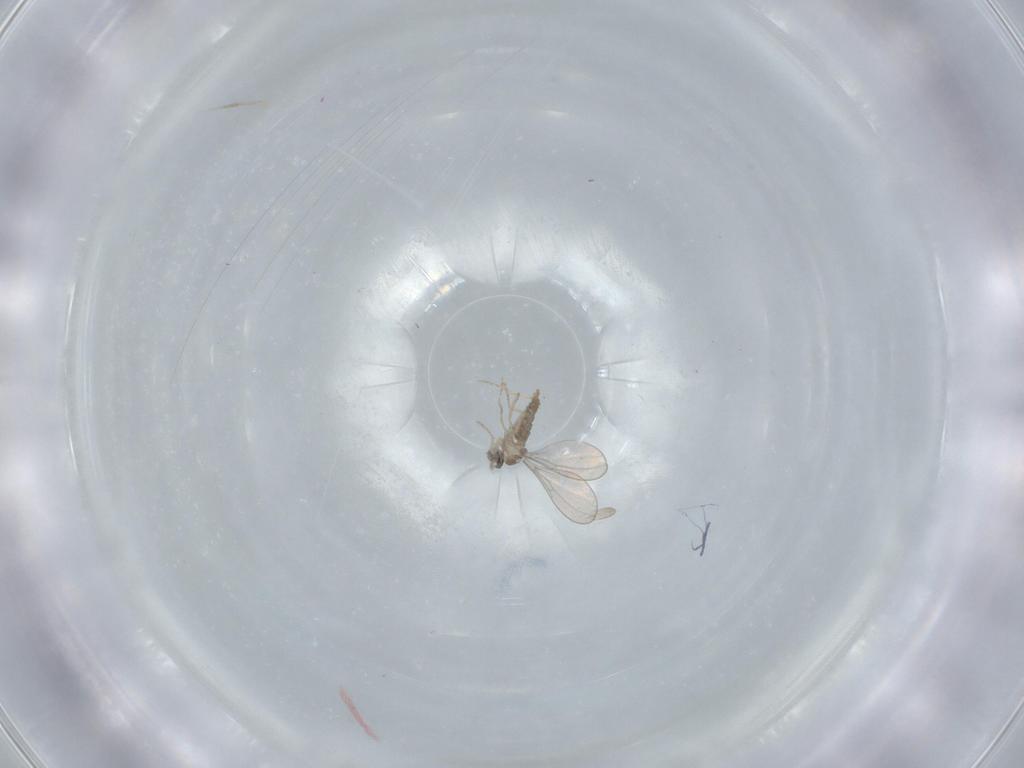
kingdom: Animalia
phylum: Arthropoda
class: Insecta
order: Diptera
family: Cecidomyiidae
